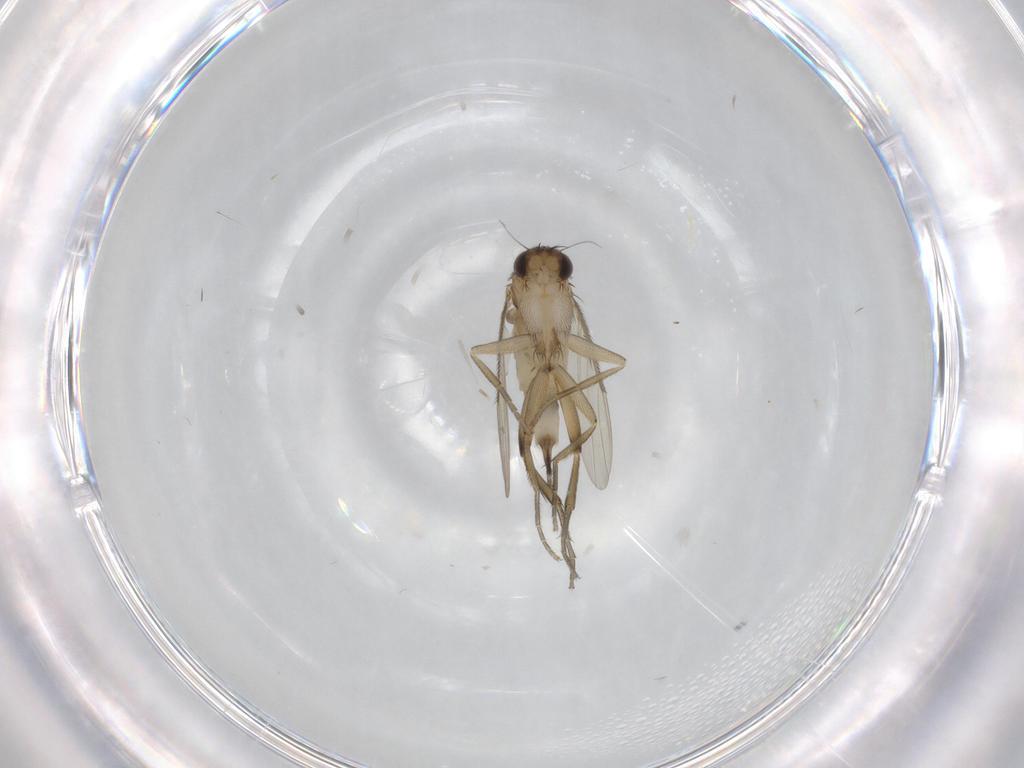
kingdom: Animalia
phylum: Arthropoda
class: Insecta
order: Diptera
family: Phoridae
